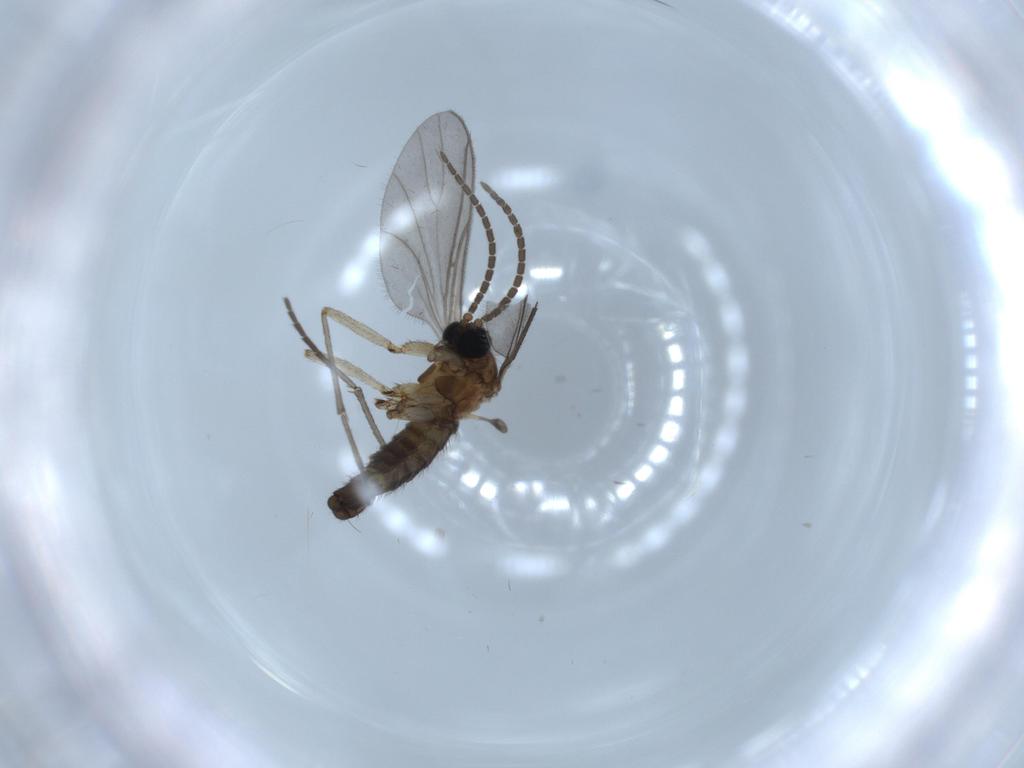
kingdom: Animalia
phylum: Arthropoda
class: Insecta
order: Diptera
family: Sciaridae
